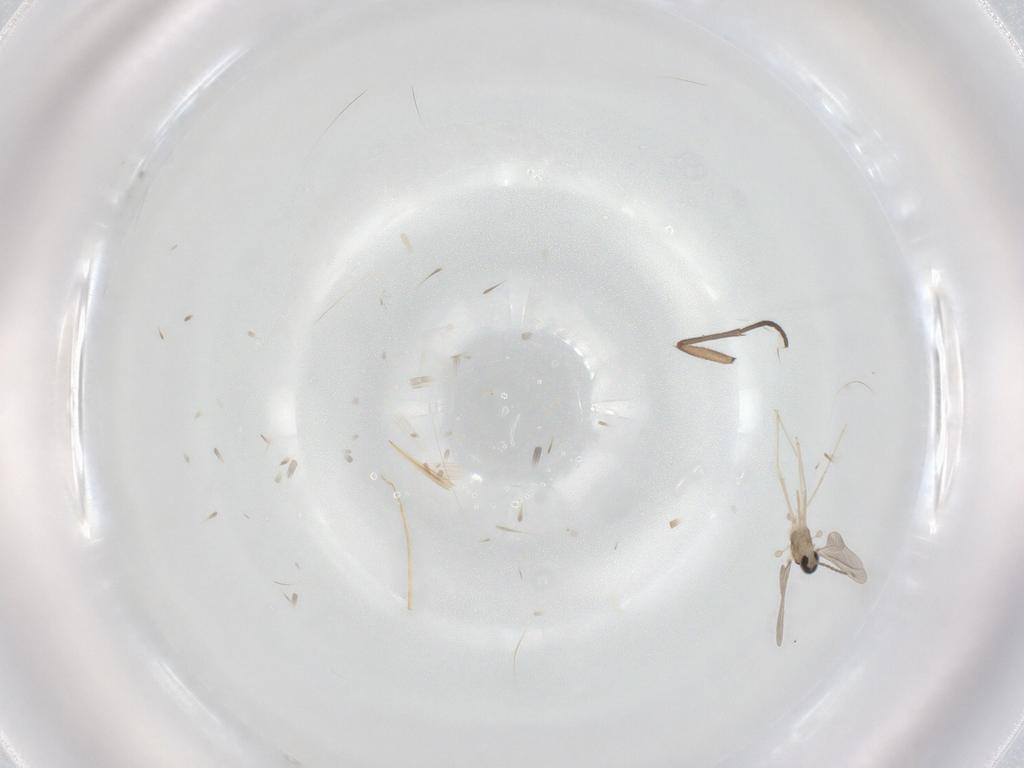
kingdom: Animalia
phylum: Arthropoda
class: Insecta
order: Diptera
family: Cecidomyiidae
